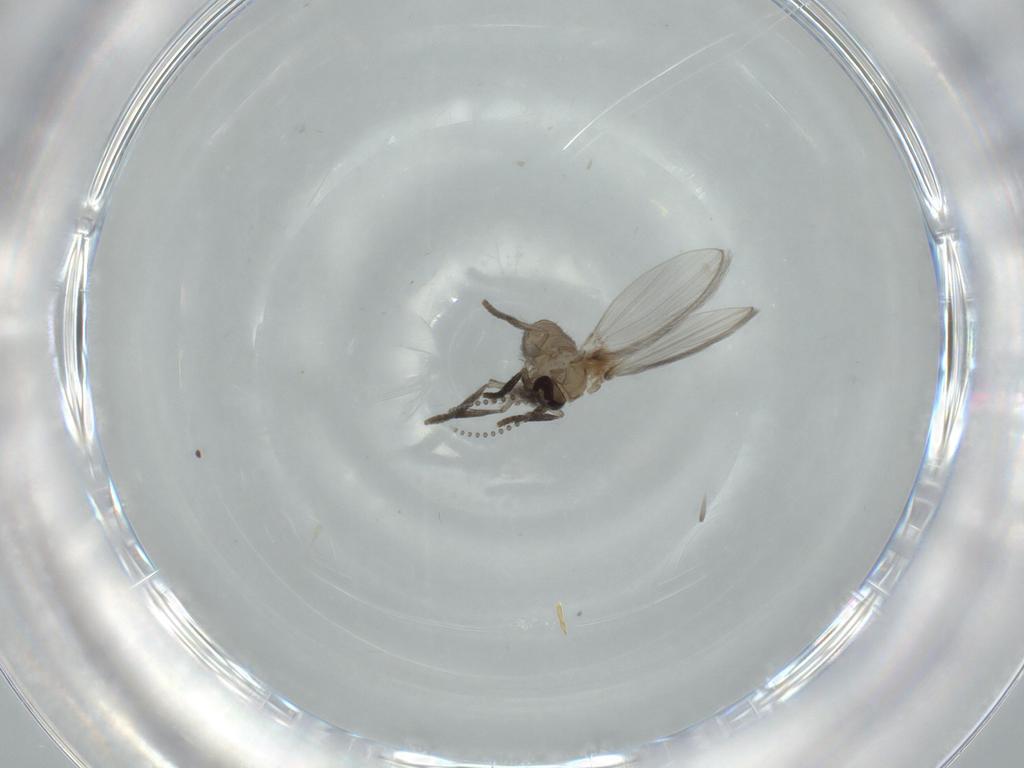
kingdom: Animalia
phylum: Arthropoda
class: Insecta
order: Diptera
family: Psychodidae
